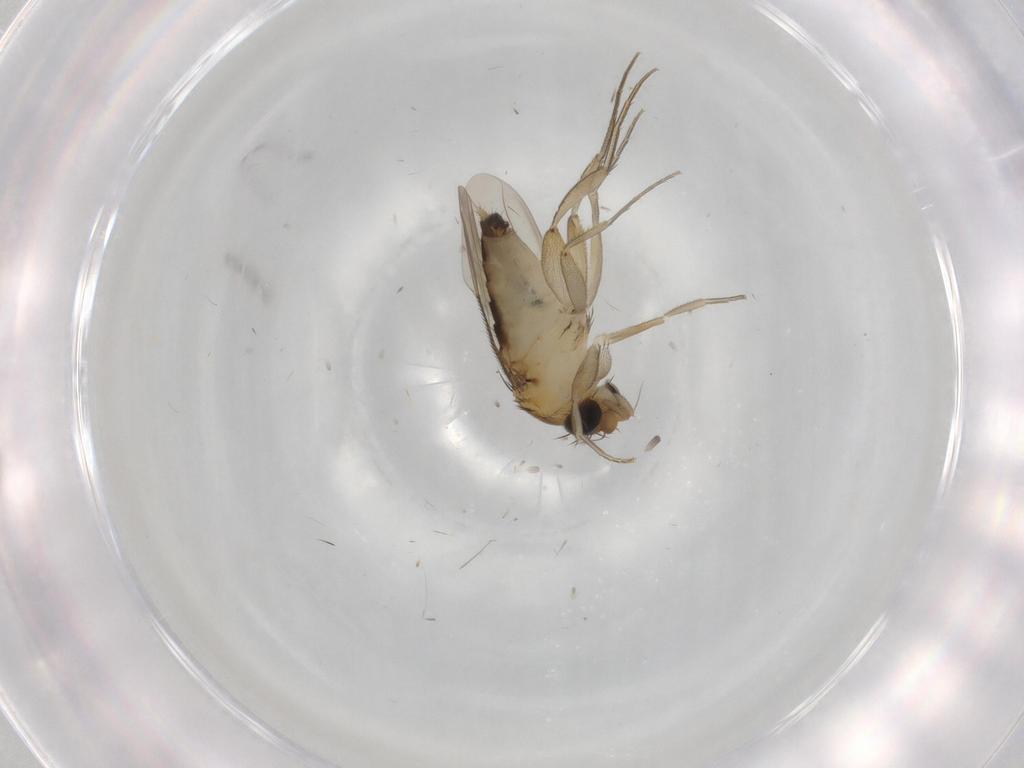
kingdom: Animalia
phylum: Arthropoda
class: Insecta
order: Diptera
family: Phoridae
